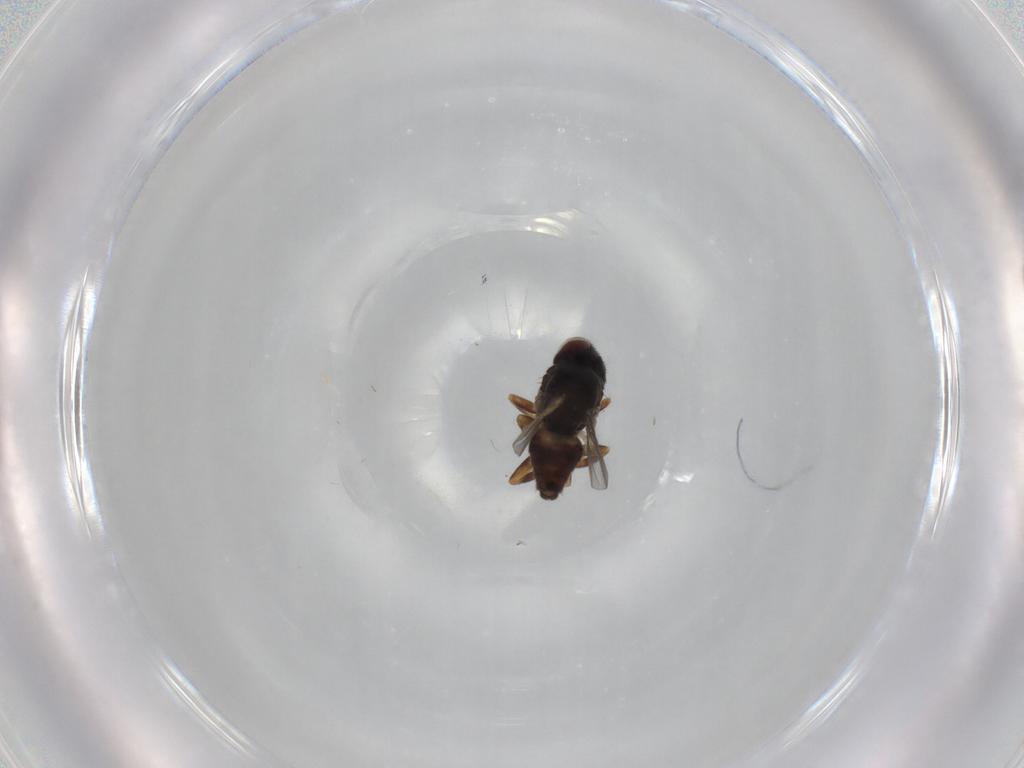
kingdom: Animalia
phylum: Arthropoda
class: Insecta
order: Diptera
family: Chloropidae
